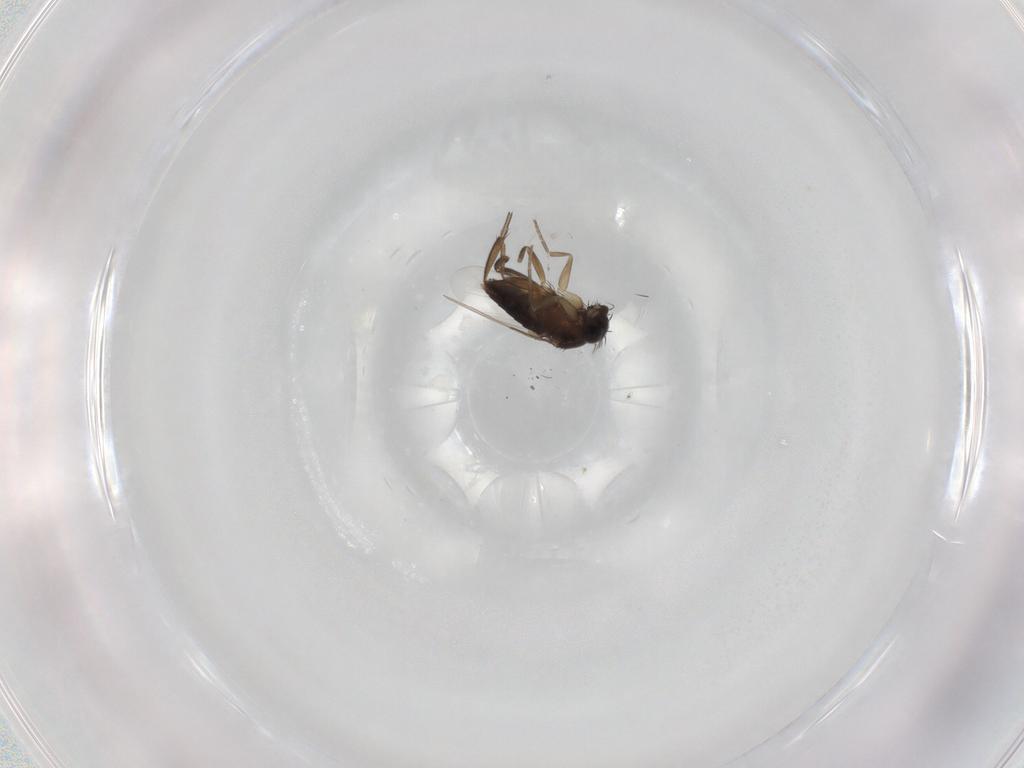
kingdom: Animalia
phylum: Arthropoda
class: Insecta
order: Diptera
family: Phoridae
